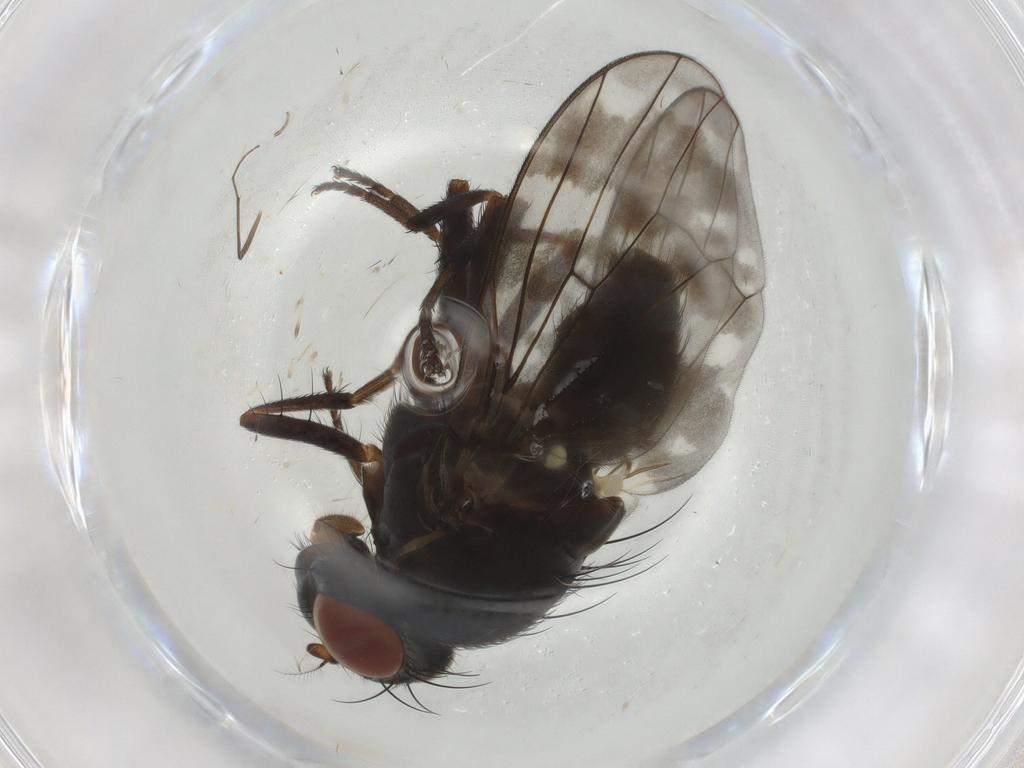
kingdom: Animalia
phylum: Arthropoda
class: Insecta
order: Diptera
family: Chironomidae
